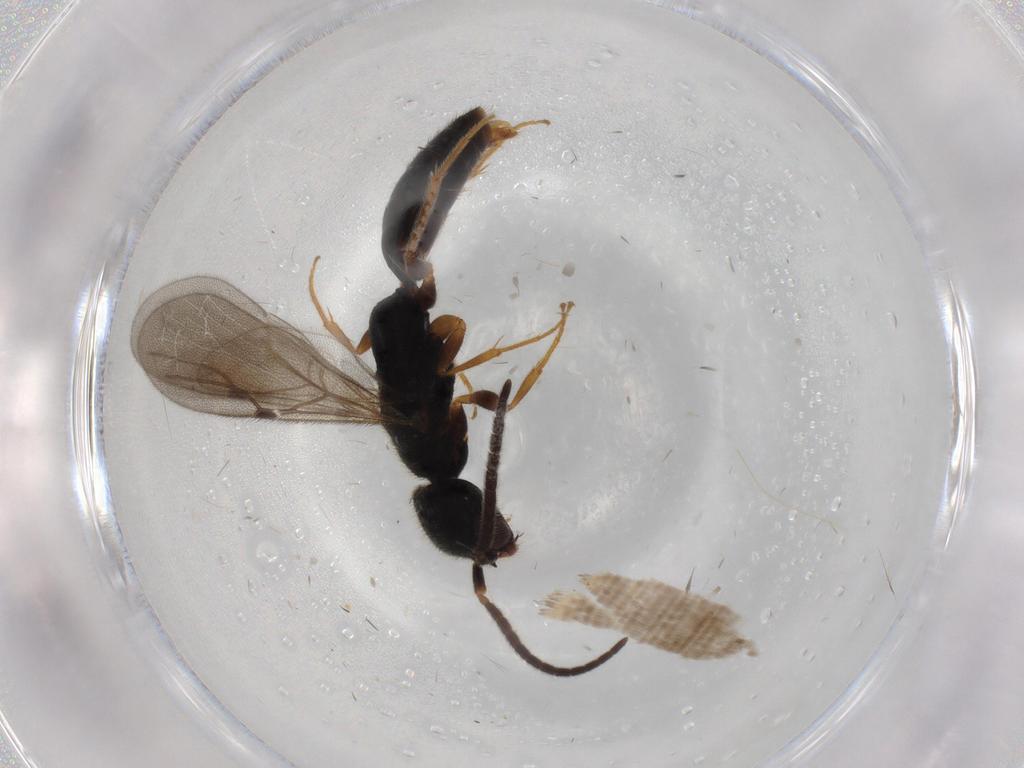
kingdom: Animalia
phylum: Arthropoda
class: Insecta
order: Hymenoptera
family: Bethylidae
